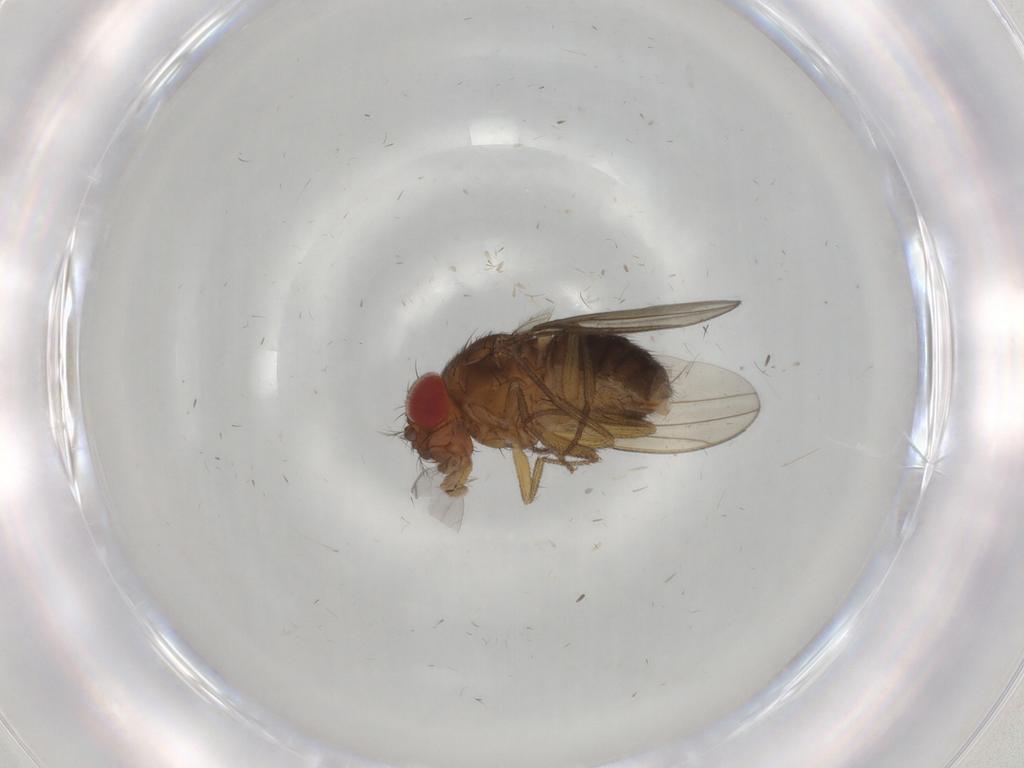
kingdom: Animalia
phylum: Arthropoda
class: Insecta
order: Diptera
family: Drosophilidae
